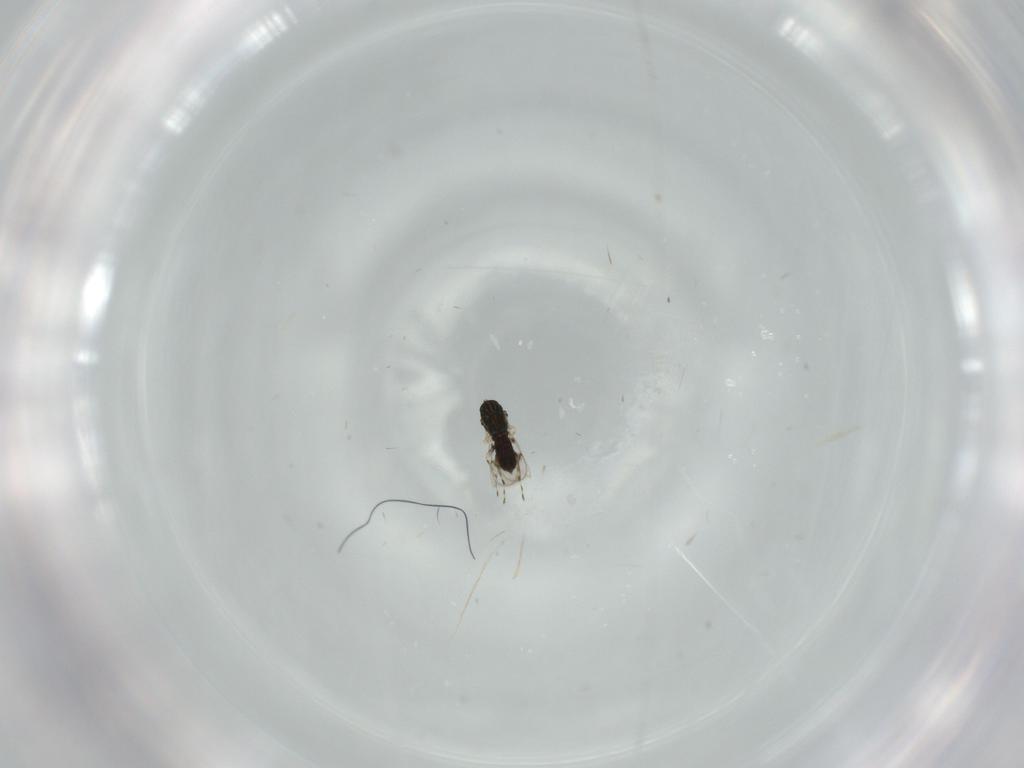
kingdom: Animalia
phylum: Arthropoda
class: Insecta
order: Hymenoptera
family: Eulophidae
